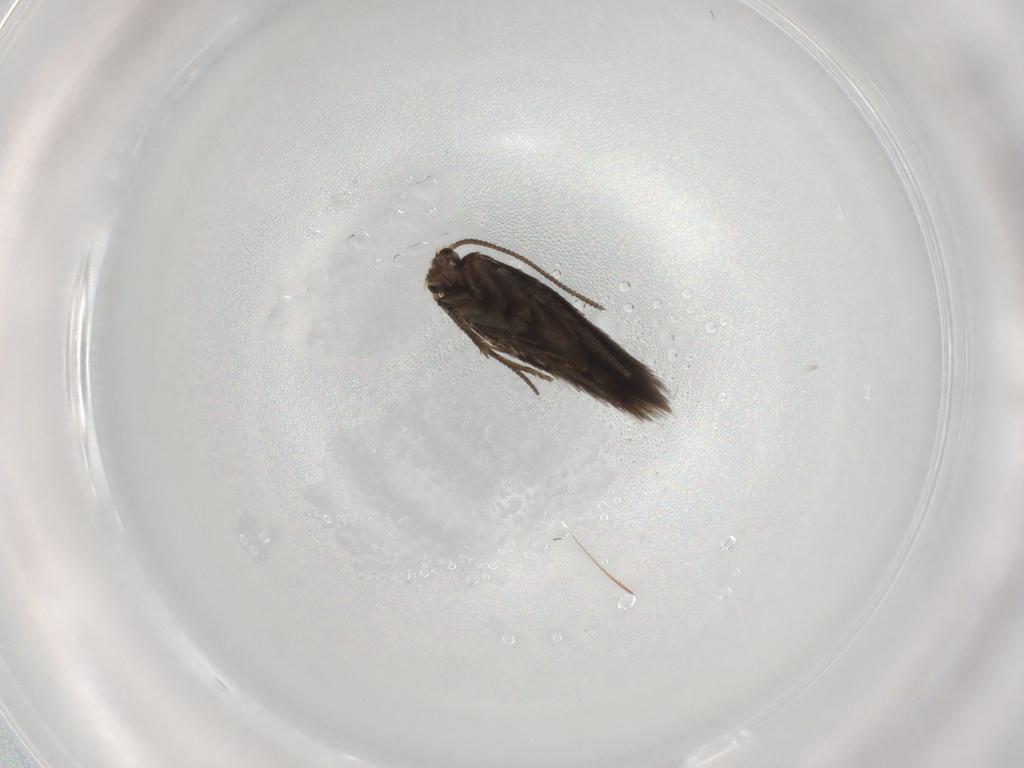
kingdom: Animalia
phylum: Arthropoda
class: Insecta
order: Lepidoptera
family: Nepticulidae
